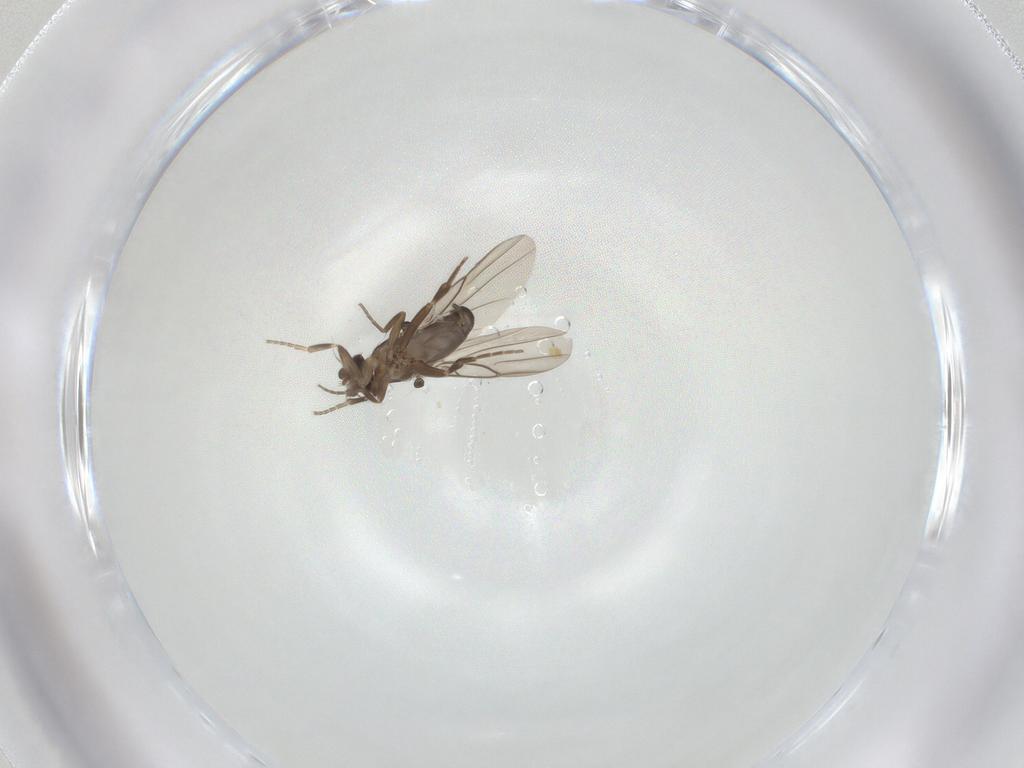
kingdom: Animalia
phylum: Arthropoda
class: Insecta
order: Diptera
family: Phoridae
